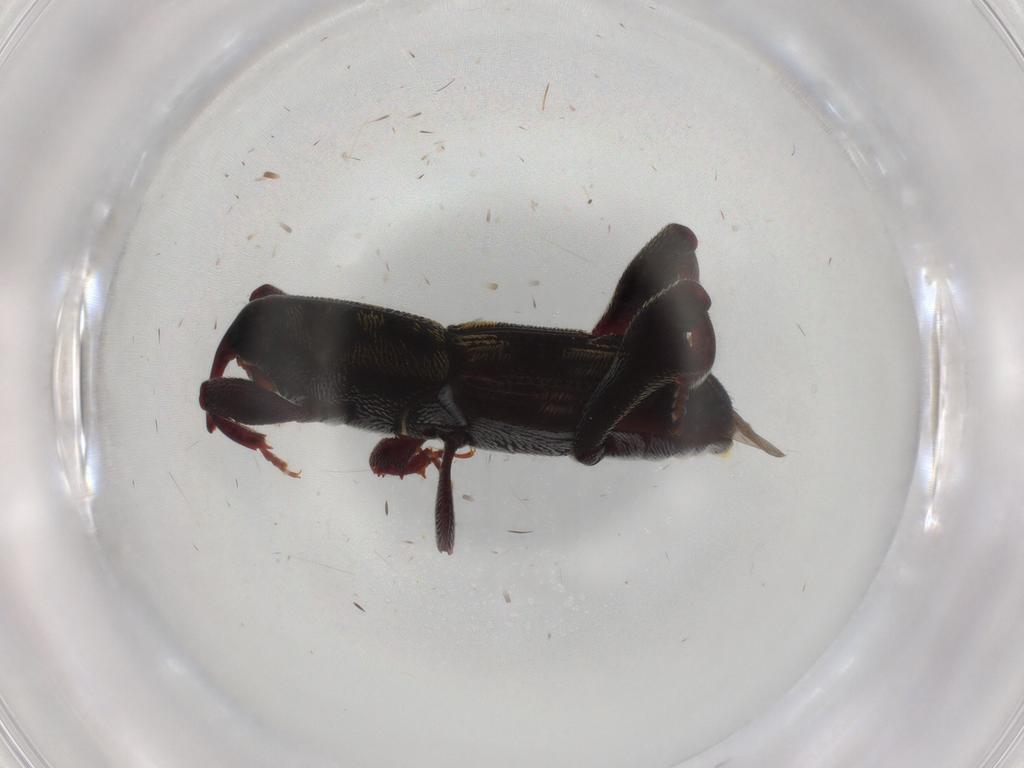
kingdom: Animalia
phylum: Arthropoda
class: Insecta
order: Coleoptera
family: Curculionidae
